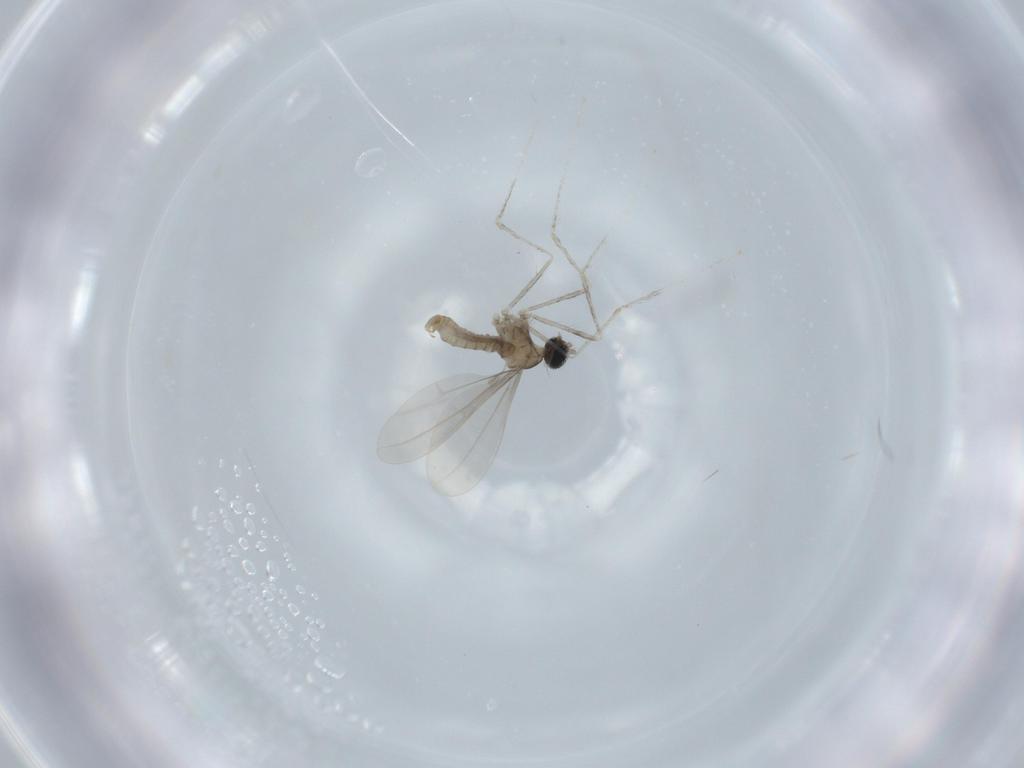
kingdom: Animalia
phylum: Arthropoda
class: Insecta
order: Diptera
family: Cecidomyiidae
